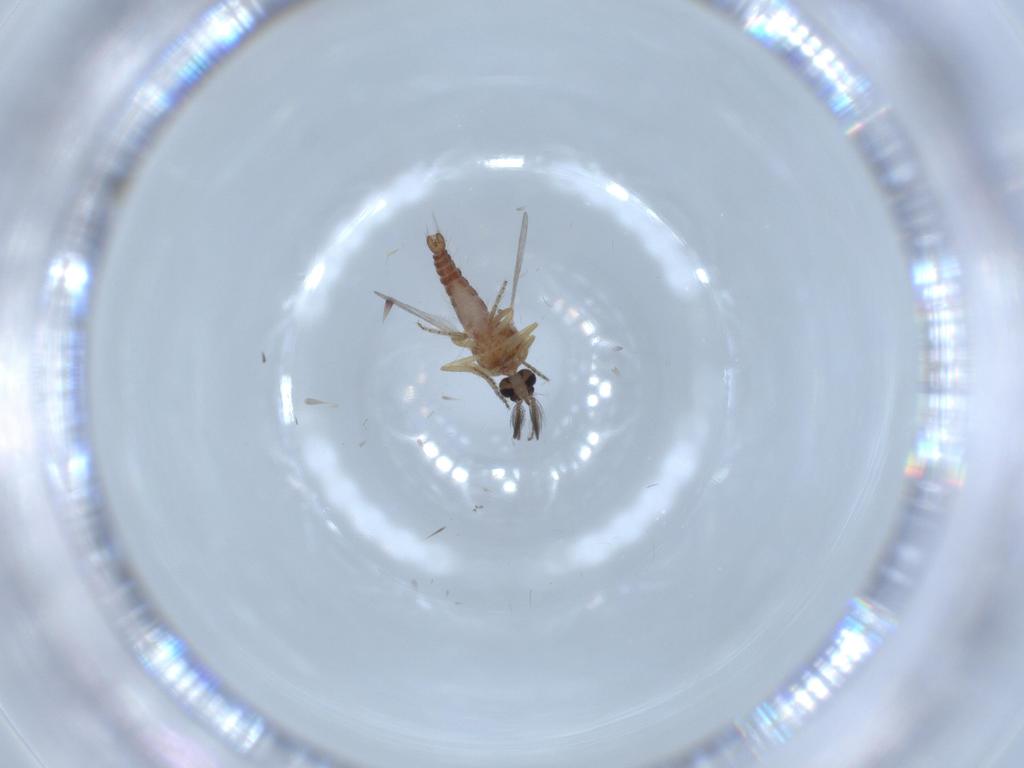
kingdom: Animalia
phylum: Arthropoda
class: Insecta
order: Diptera
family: Ceratopogonidae
